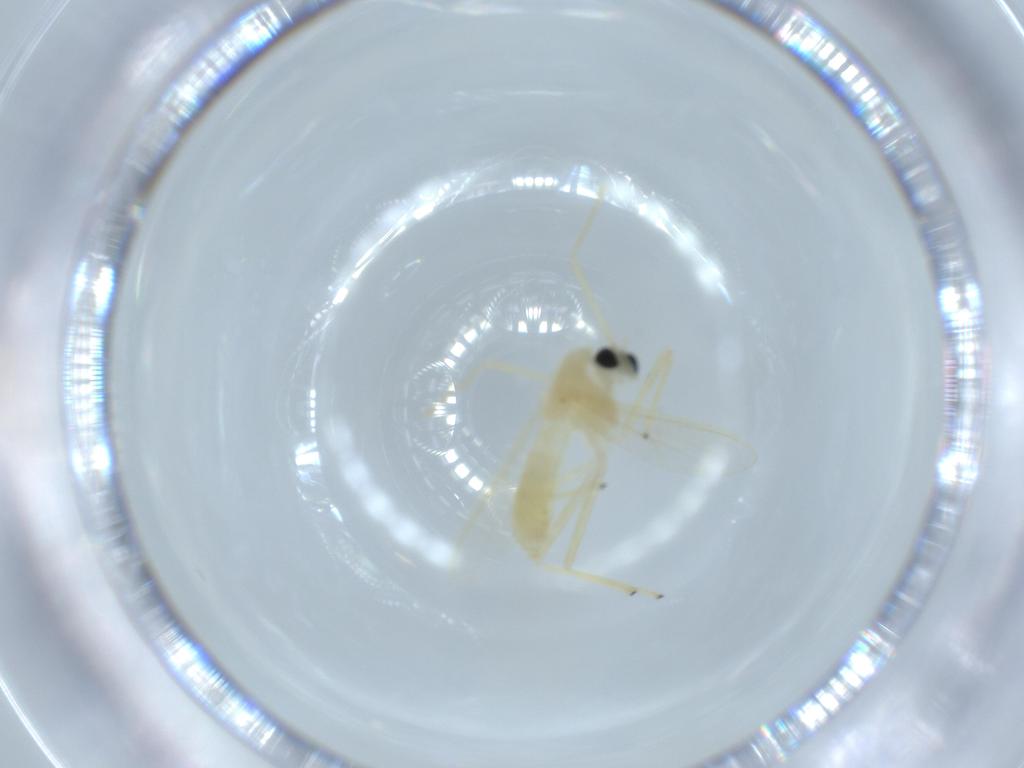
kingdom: Animalia
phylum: Arthropoda
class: Insecta
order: Diptera
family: Chironomidae
